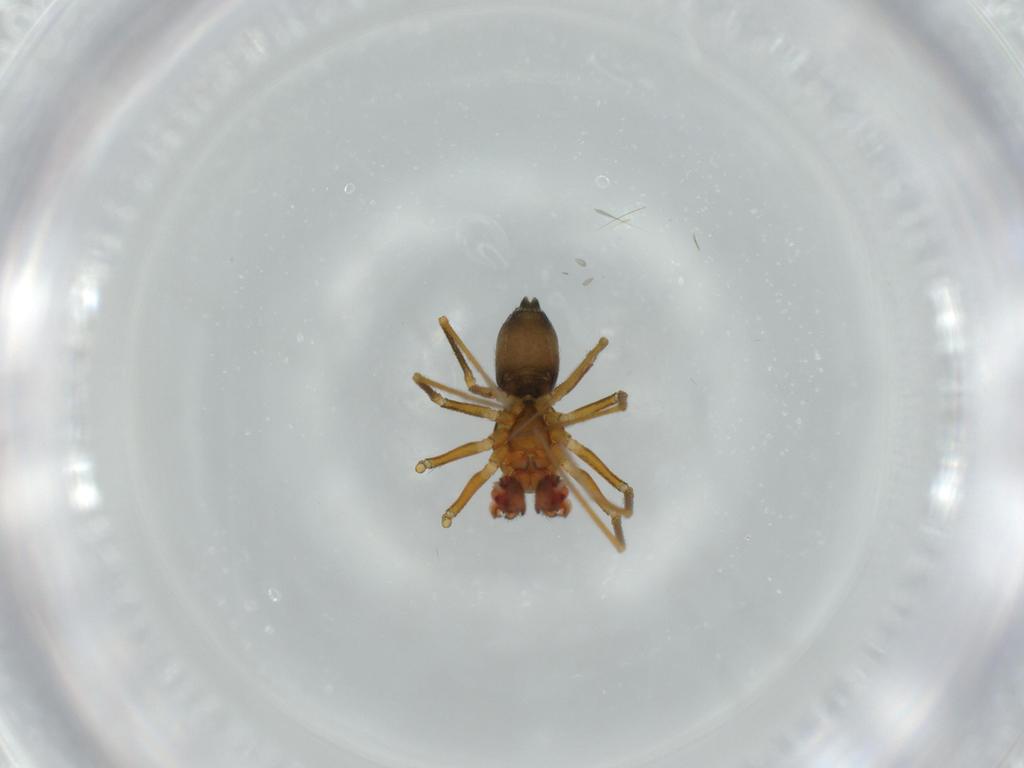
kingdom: Animalia
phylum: Arthropoda
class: Arachnida
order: Araneae
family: Linyphiidae
